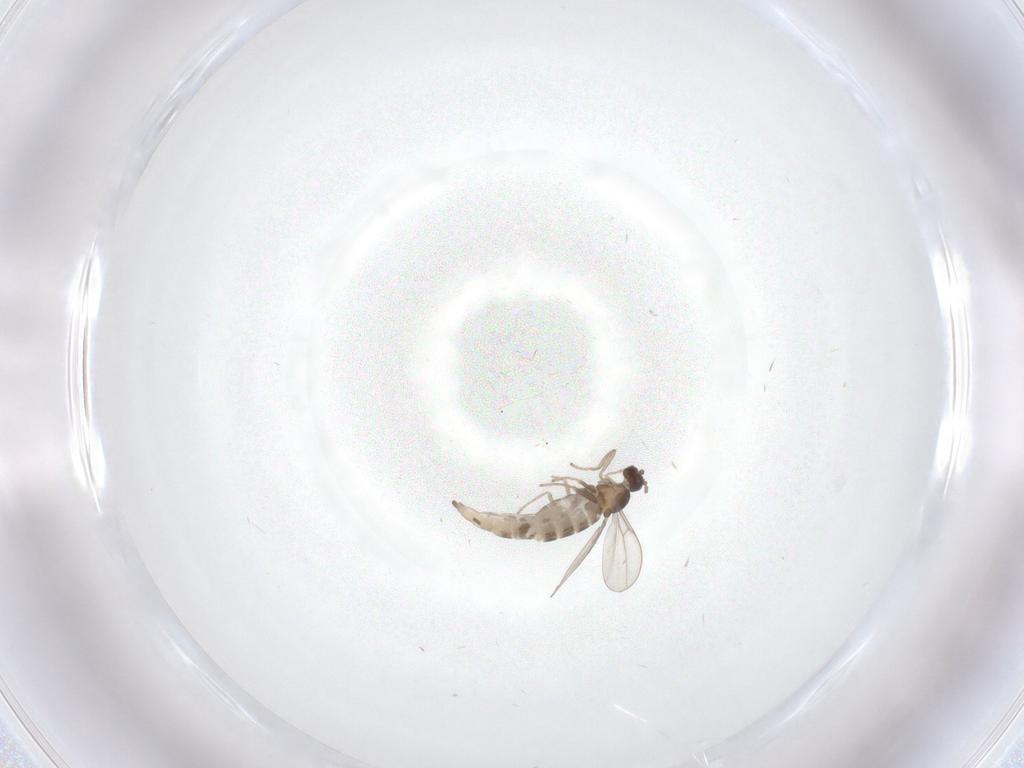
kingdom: Animalia
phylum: Arthropoda
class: Insecta
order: Diptera
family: Cecidomyiidae
